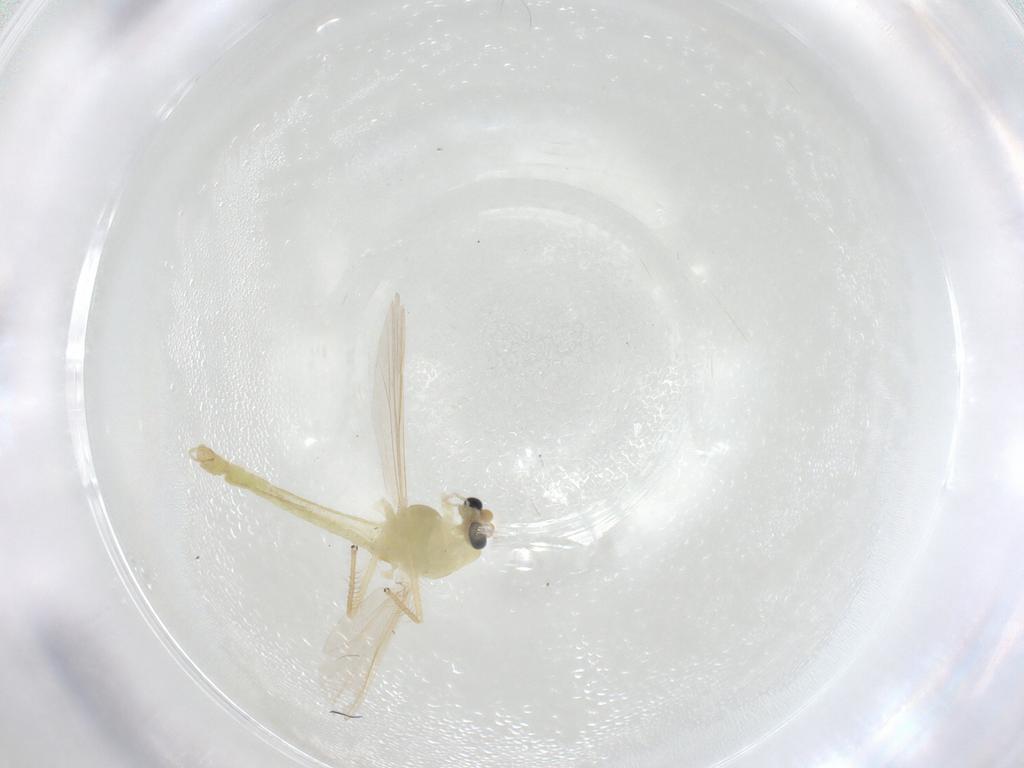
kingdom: Animalia
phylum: Arthropoda
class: Insecta
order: Diptera
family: Chironomidae
